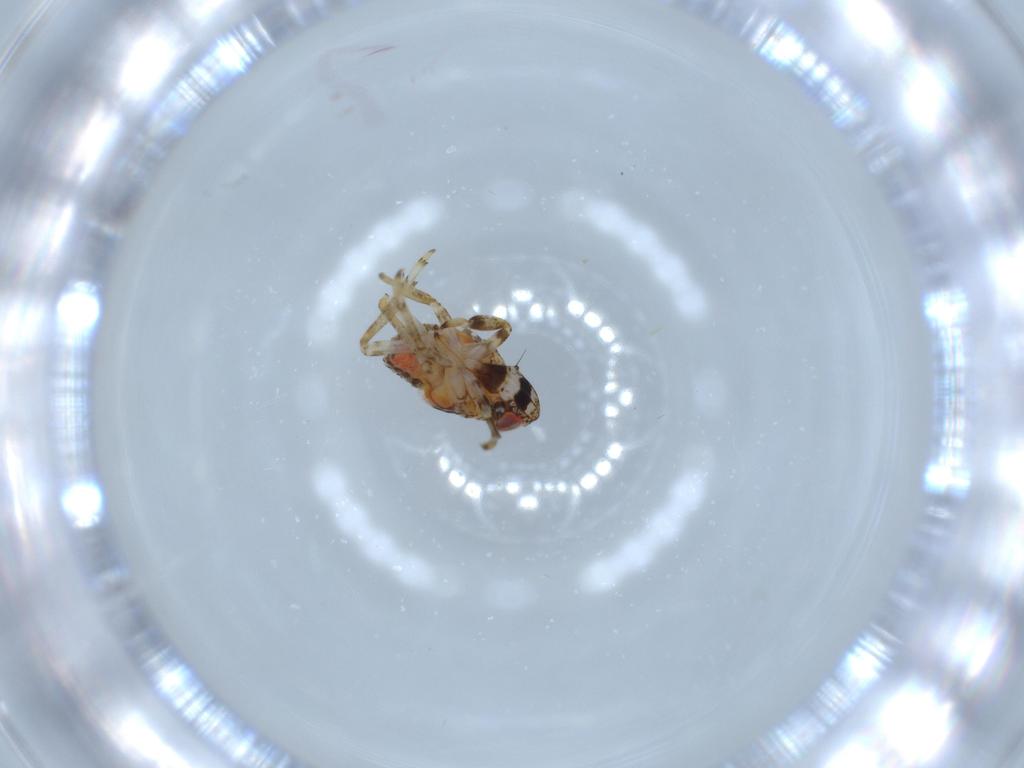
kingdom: Animalia
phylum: Arthropoda
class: Insecta
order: Hemiptera
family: Issidae
